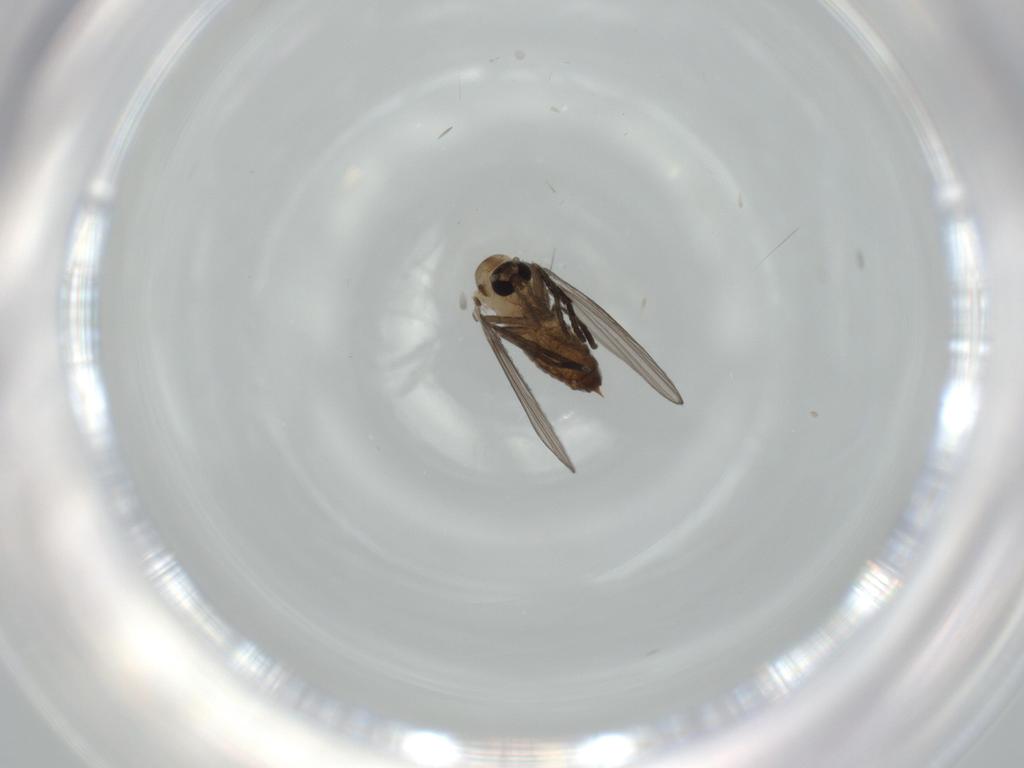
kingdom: Animalia
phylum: Arthropoda
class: Insecta
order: Diptera
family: Psychodidae
